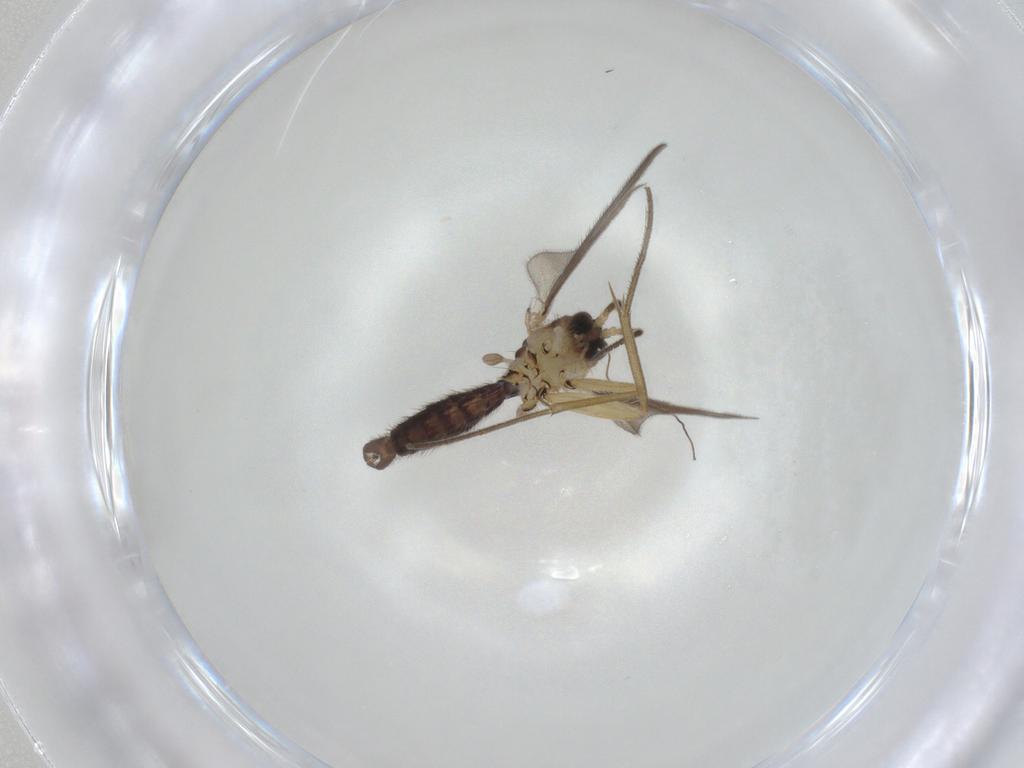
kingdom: Animalia
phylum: Arthropoda
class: Insecta
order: Diptera
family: Mycetophilidae
